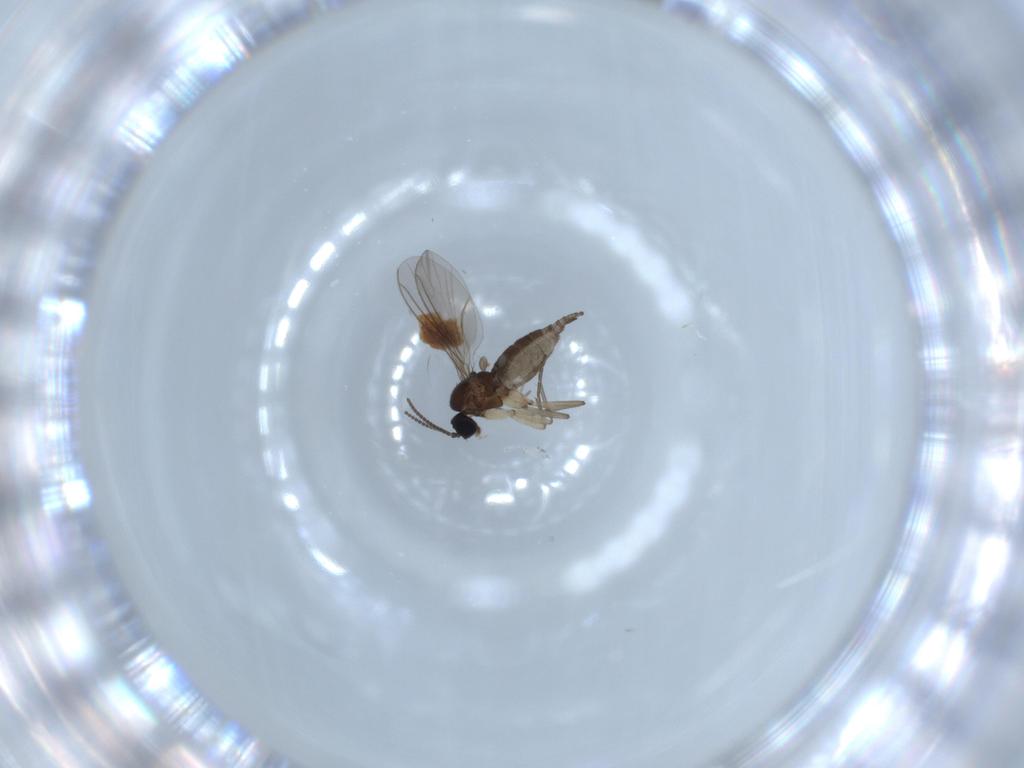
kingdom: Animalia
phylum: Arthropoda
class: Insecta
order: Diptera
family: Sciaridae
